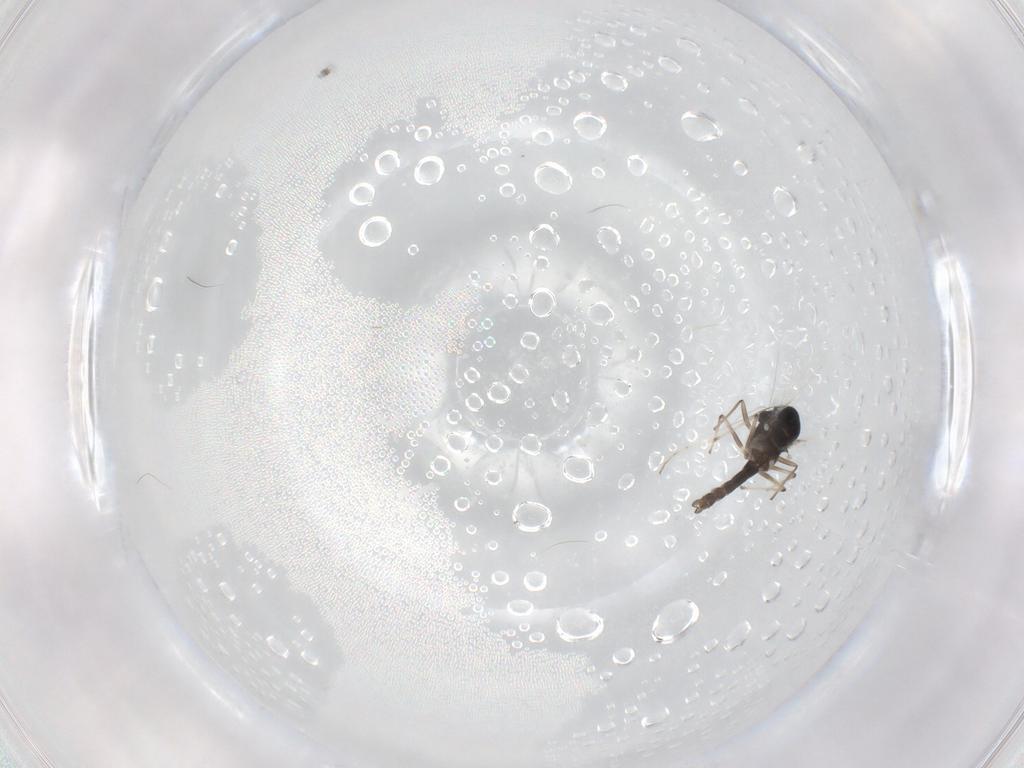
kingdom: Animalia
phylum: Arthropoda
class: Insecta
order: Diptera
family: Chironomidae
